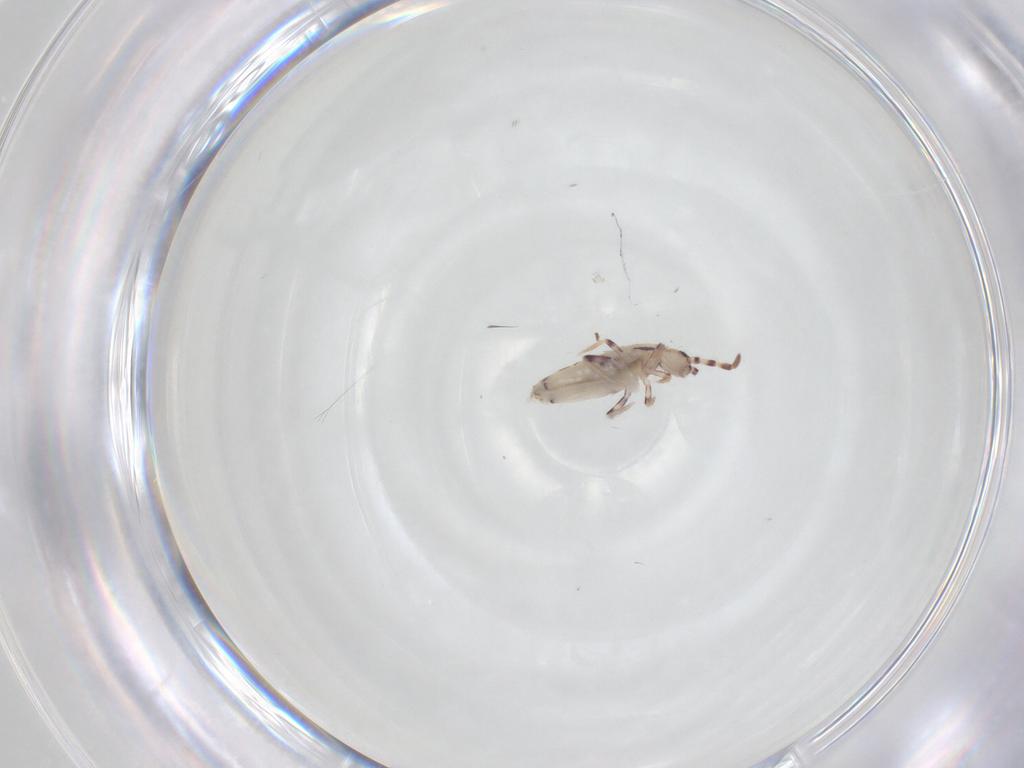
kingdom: Animalia
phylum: Arthropoda
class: Collembola
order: Entomobryomorpha
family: Entomobryidae
